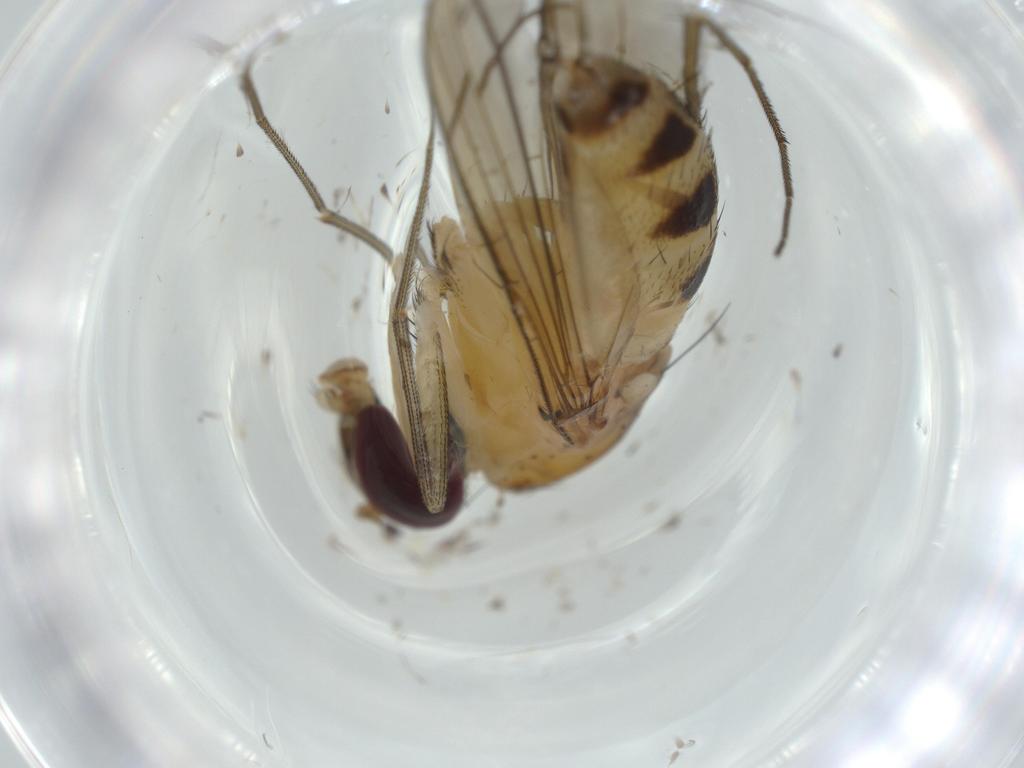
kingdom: Animalia
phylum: Arthropoda
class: Insecta
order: Diptera
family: Dolichopodidae
